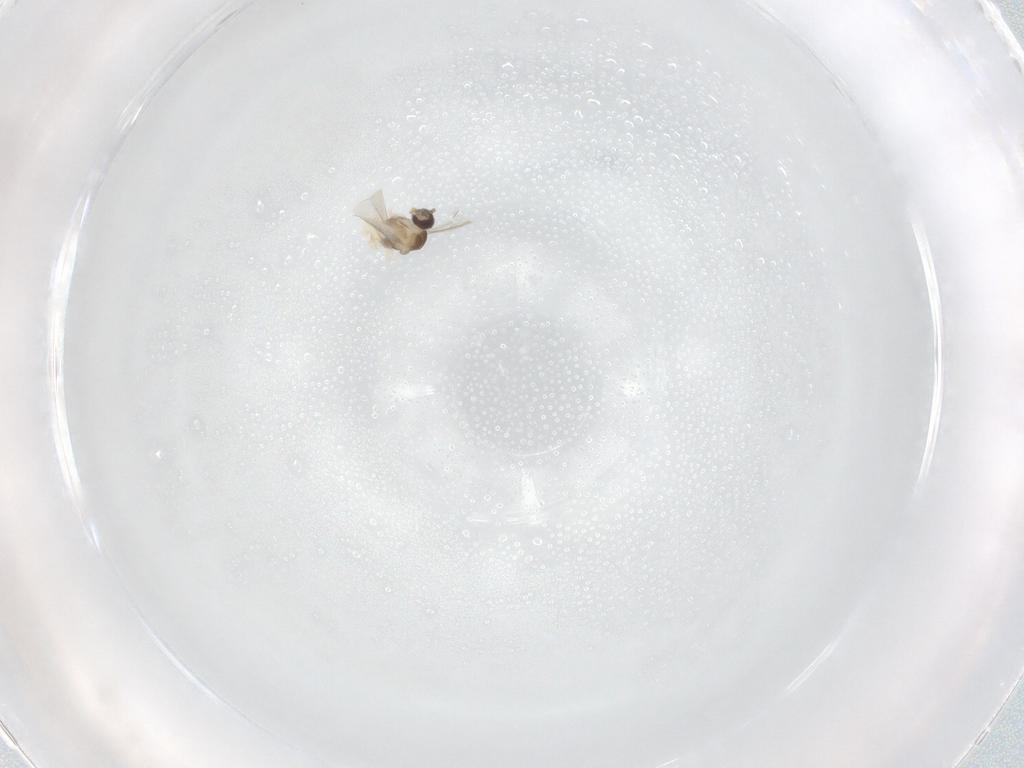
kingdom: Animalia
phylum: Arthropoda
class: Insecta
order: Diptera
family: Cecidomyiidae
